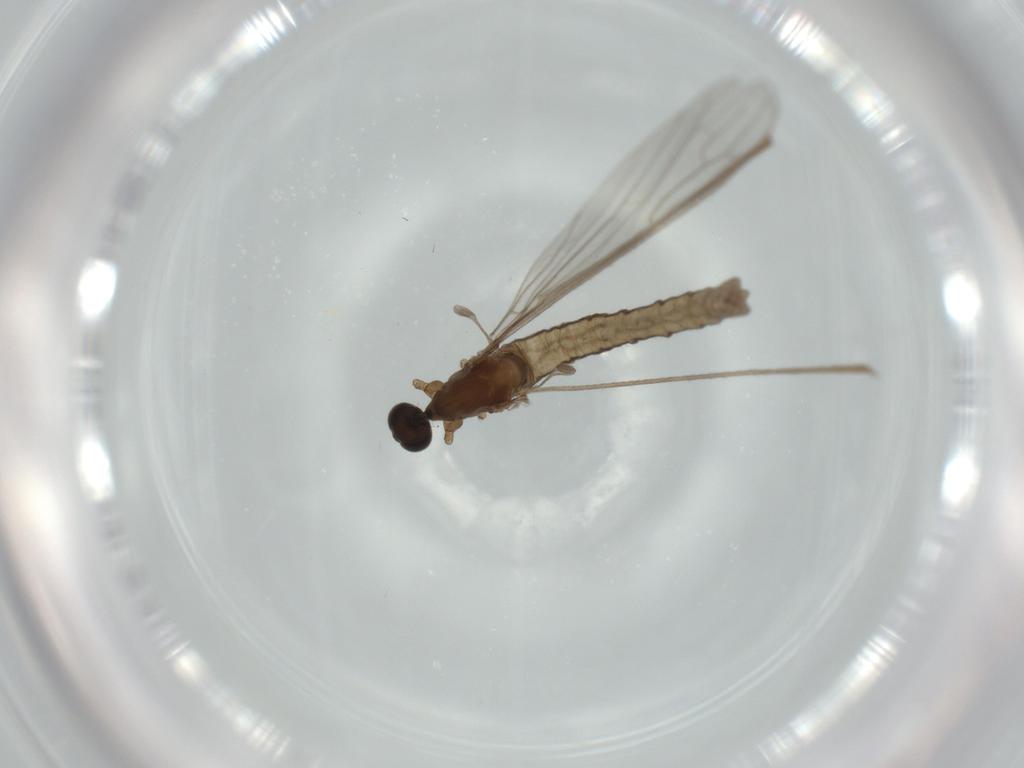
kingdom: Animalia
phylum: Arthropoda
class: Insecta
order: Diptera
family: Limoniidae
